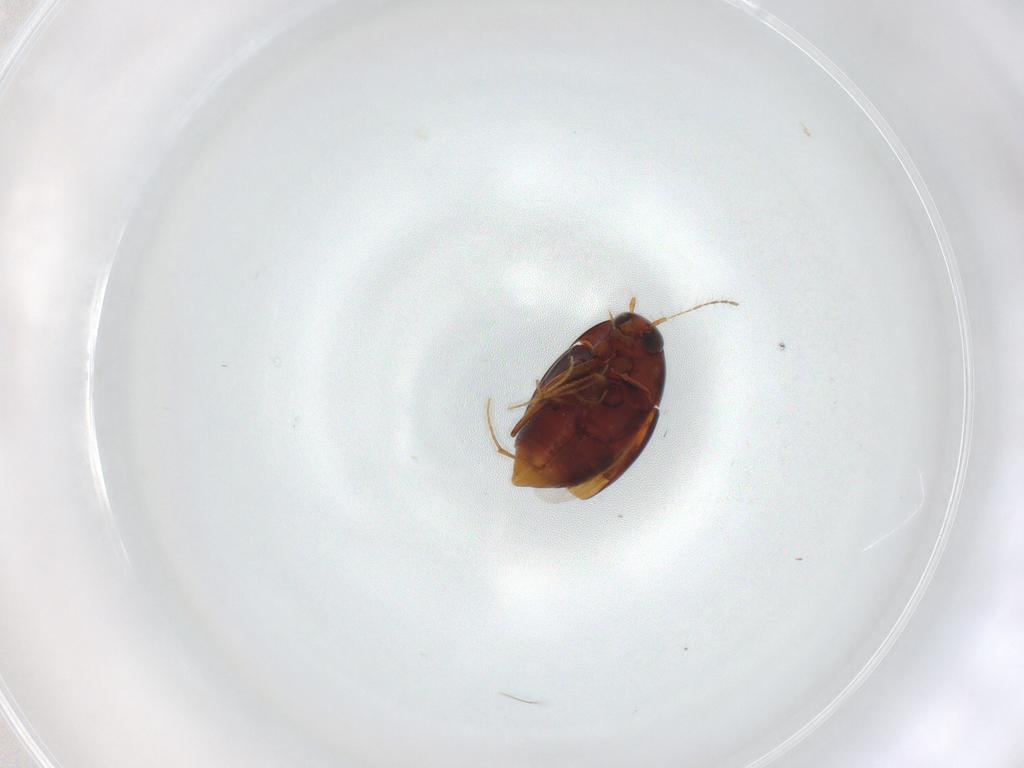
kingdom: Animalia
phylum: Arthropoda
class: Insecta
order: Coleoptera
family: Staphylinidae
